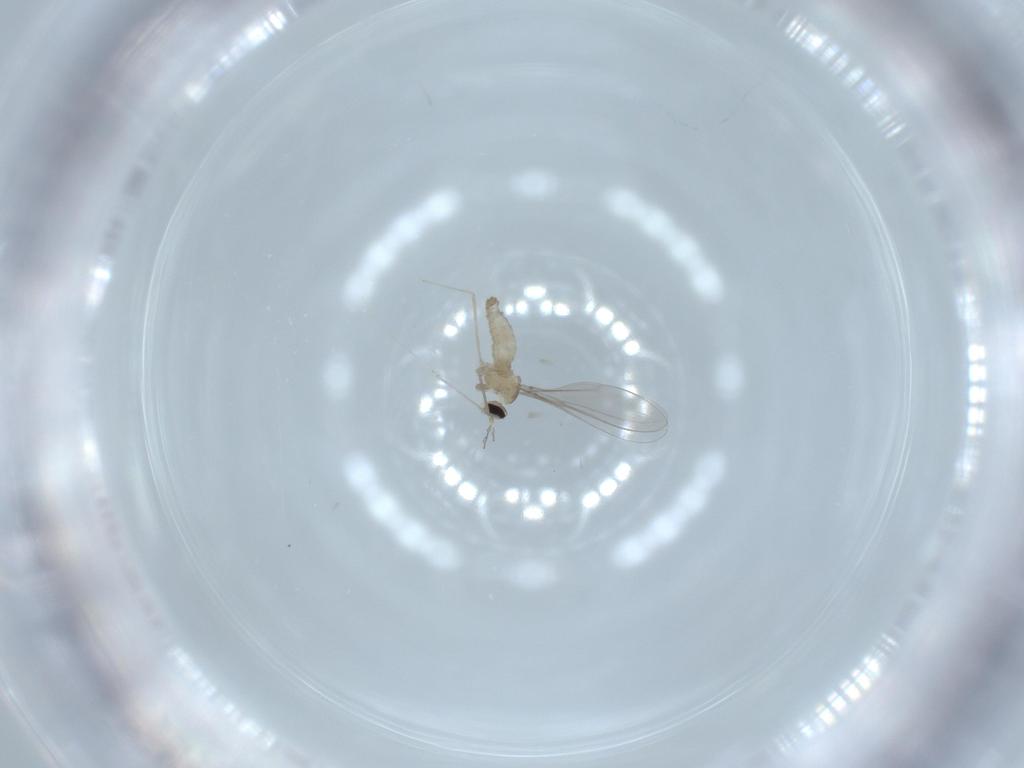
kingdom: Animalia
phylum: Arthropoda
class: Insecta
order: Diptera
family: Cecidomyiidae
